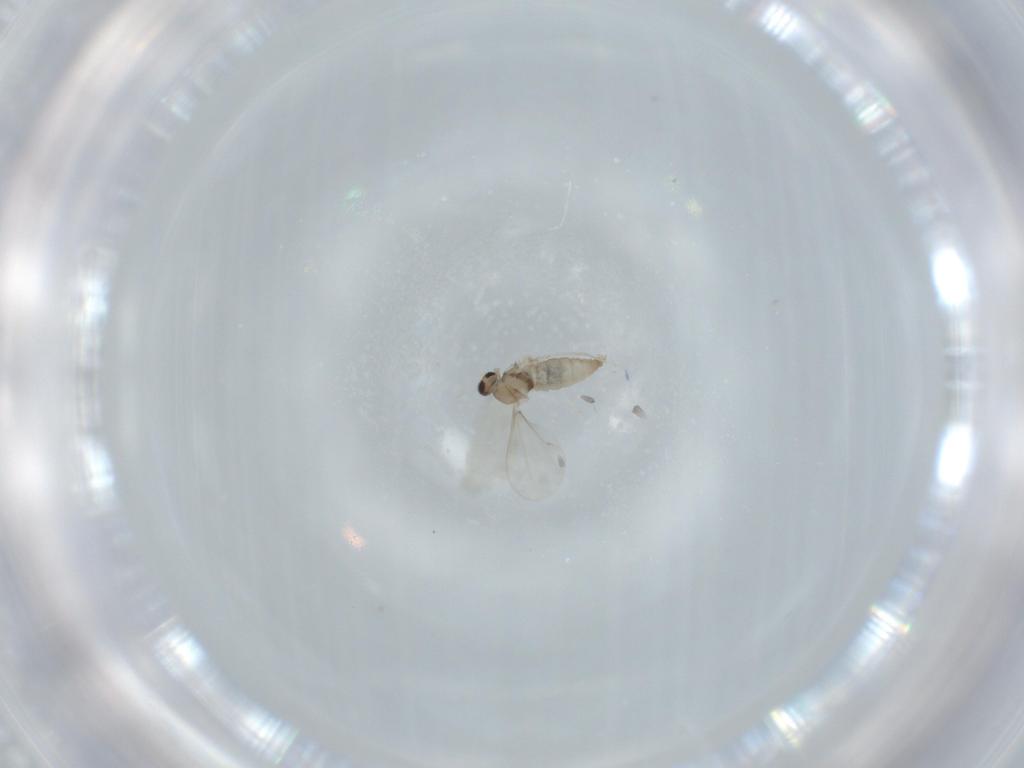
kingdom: Animalia
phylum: Arthropoda
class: Insecta
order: Diptera
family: Cecidomyiidae
